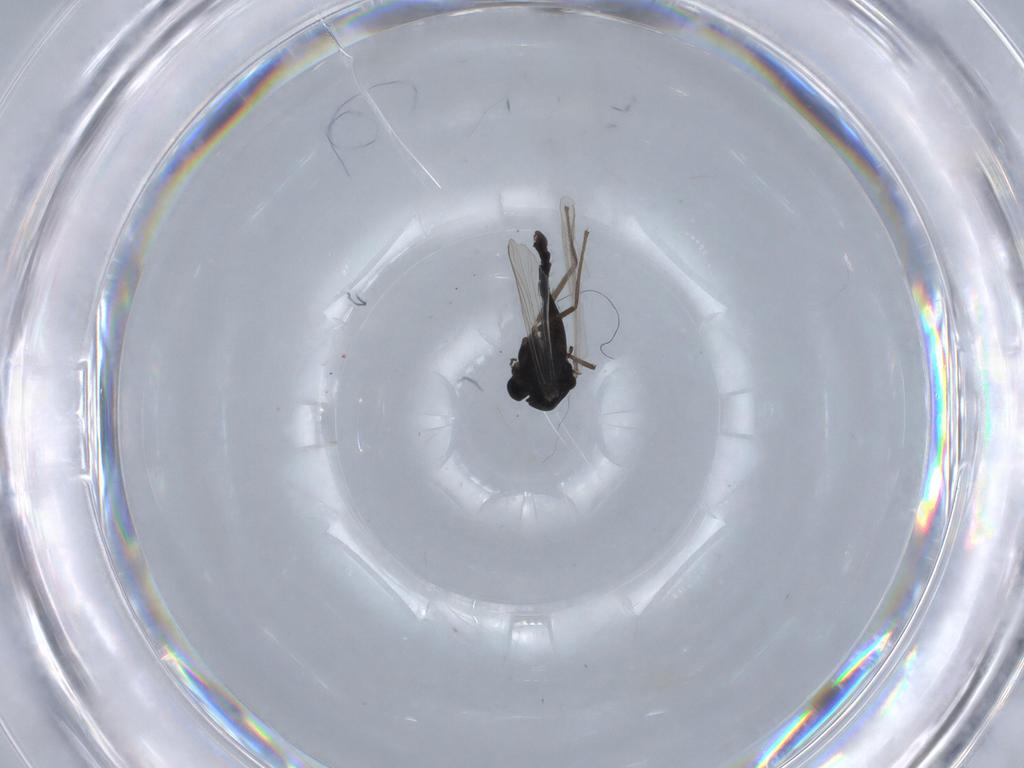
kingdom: Animalia
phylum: Arthropoda
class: Insecta
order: Diptera
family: Chironomidae
